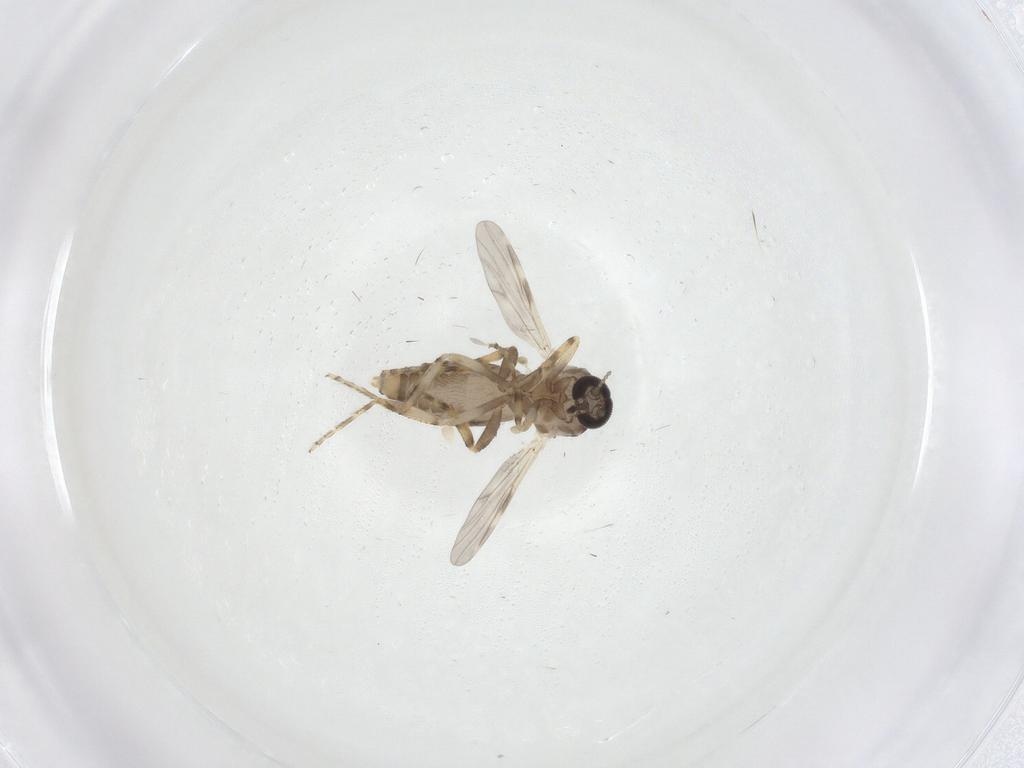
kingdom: Animalia
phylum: Arthropoda
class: Insecta
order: Diptera
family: Ceratopogonidae
